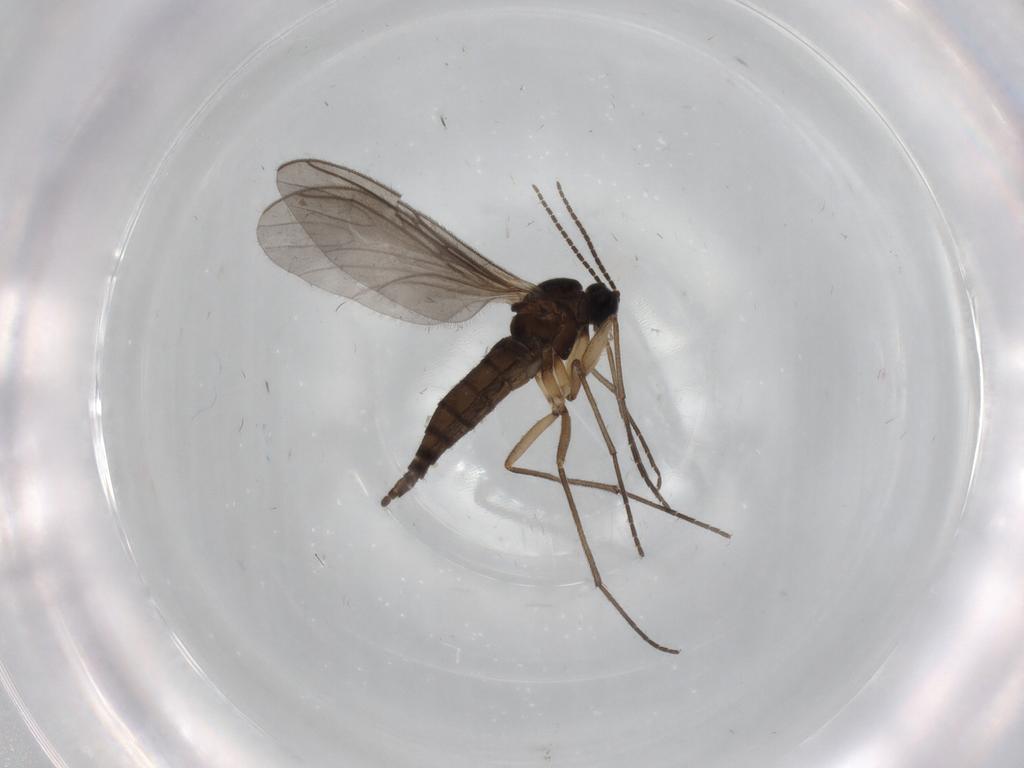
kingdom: Animalia
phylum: Arthropoda
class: Insecta
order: Diptera
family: Sciaridae
